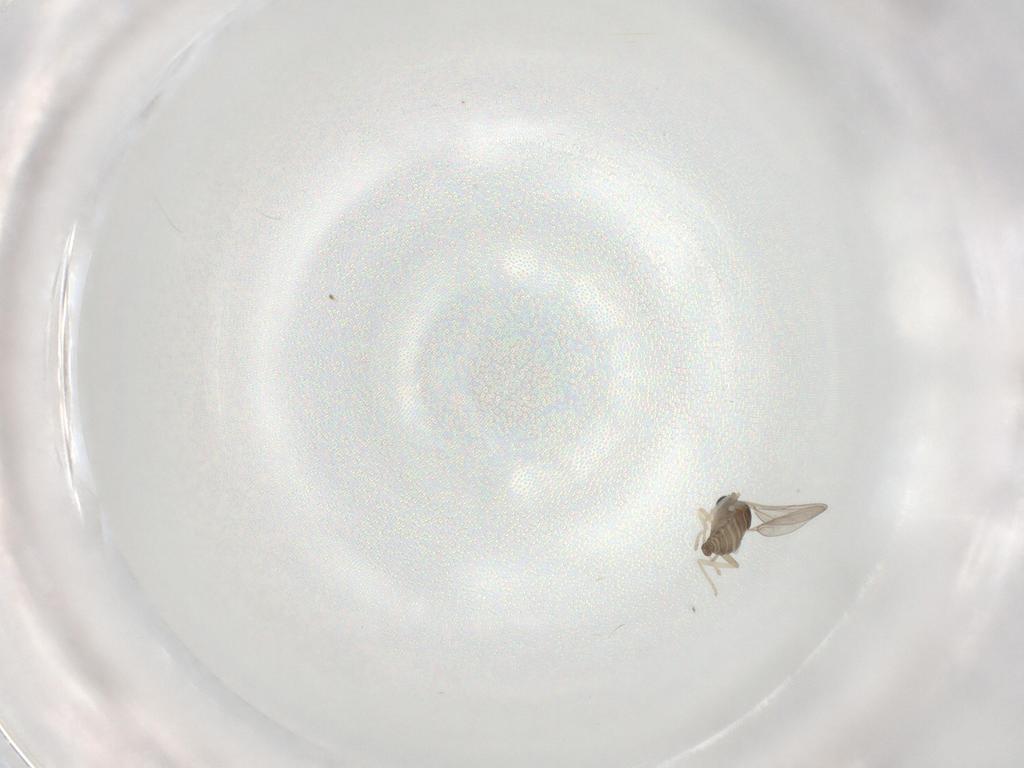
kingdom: Animalia
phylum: Arthropoda
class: Insecta
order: Diptera
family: Cecidomyiidae
